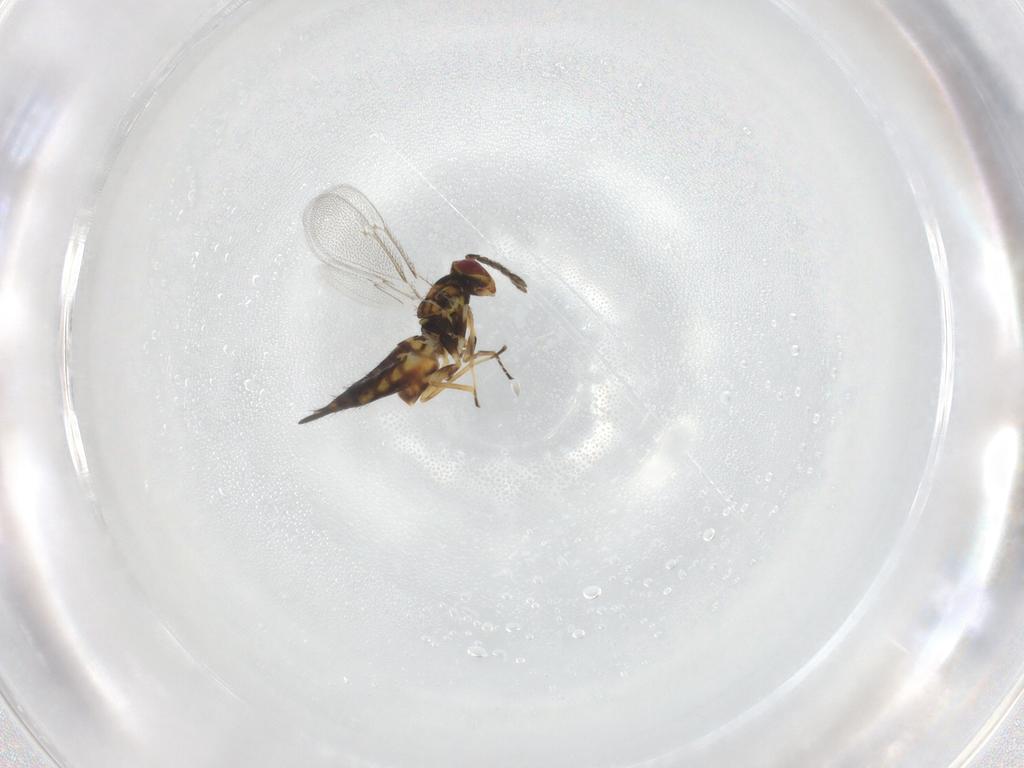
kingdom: Animalia
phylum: Arthropoda
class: Insecta
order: Hymenoptera
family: Eulophidae
